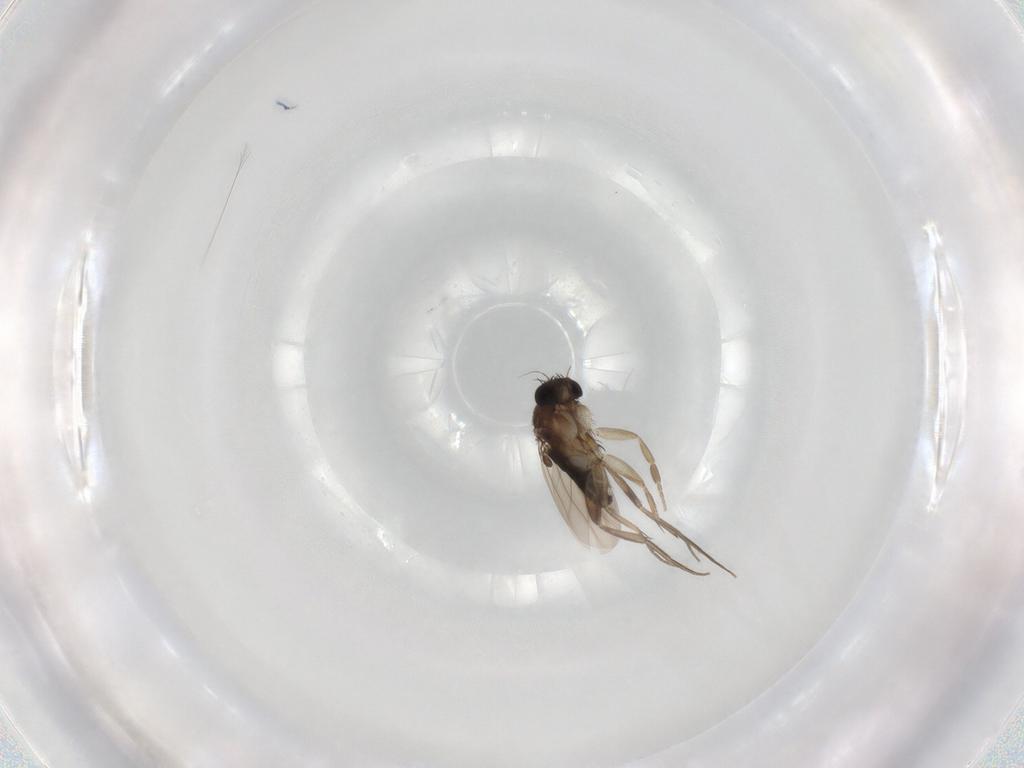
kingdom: Animalia
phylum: Arthropoda
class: Insecta
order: Diptera
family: Phoridae
